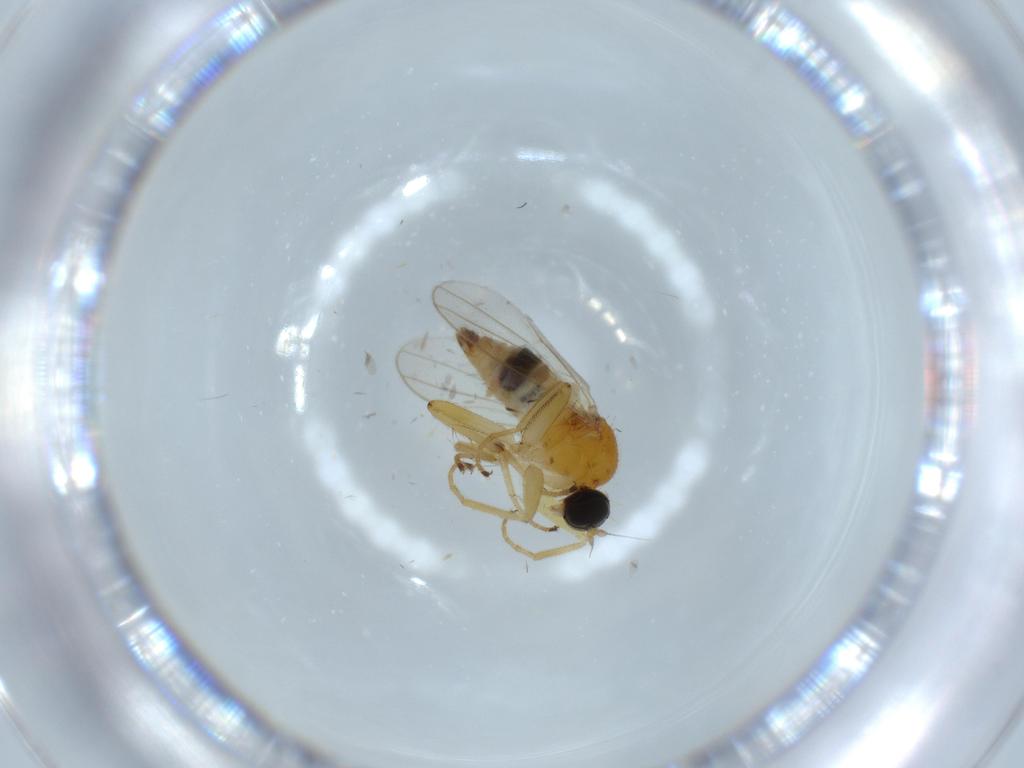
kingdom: Animalia
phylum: Arthropoda
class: Insecta
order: Diptera
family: Hybotidae
